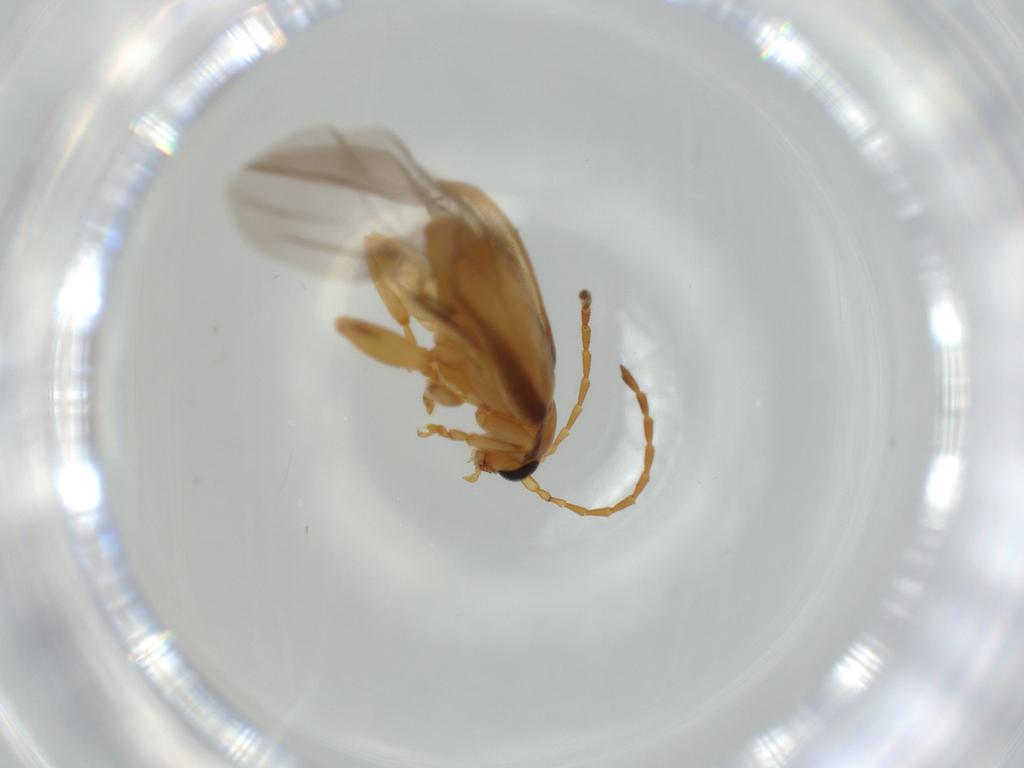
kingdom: Animalia
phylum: Arthropoda
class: Insecta
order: Coleoptera
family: Chrysomelidae
